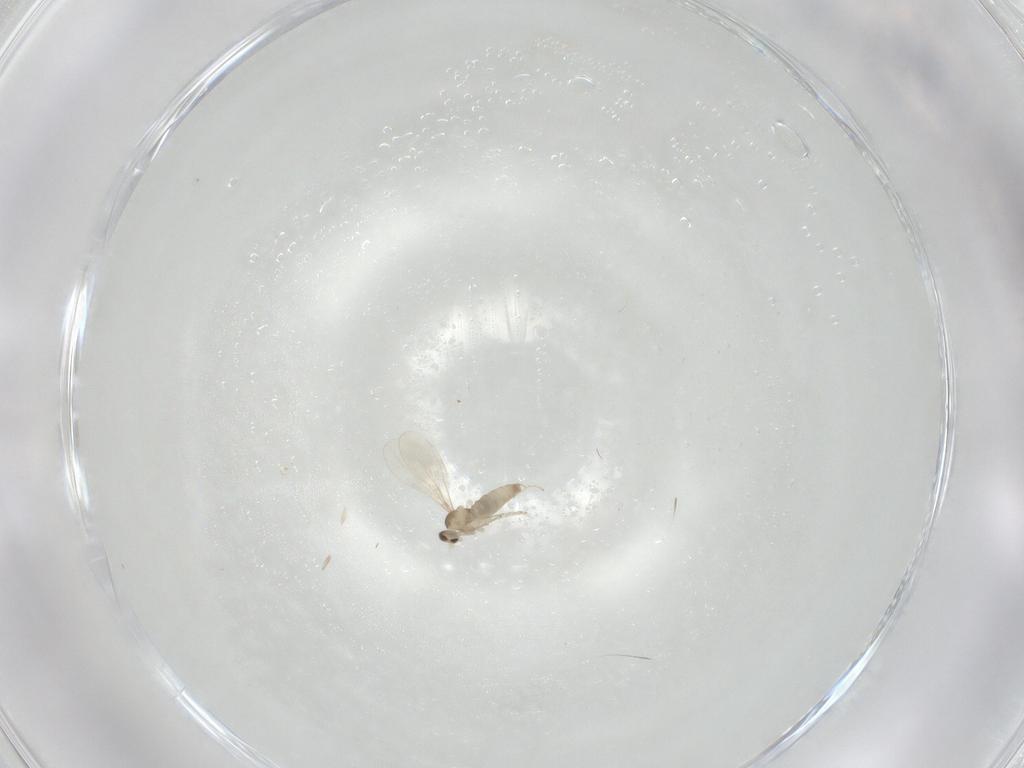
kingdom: Animalia
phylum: Arthropoda
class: Insecta
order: Diptera
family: Cecidomyiidae
